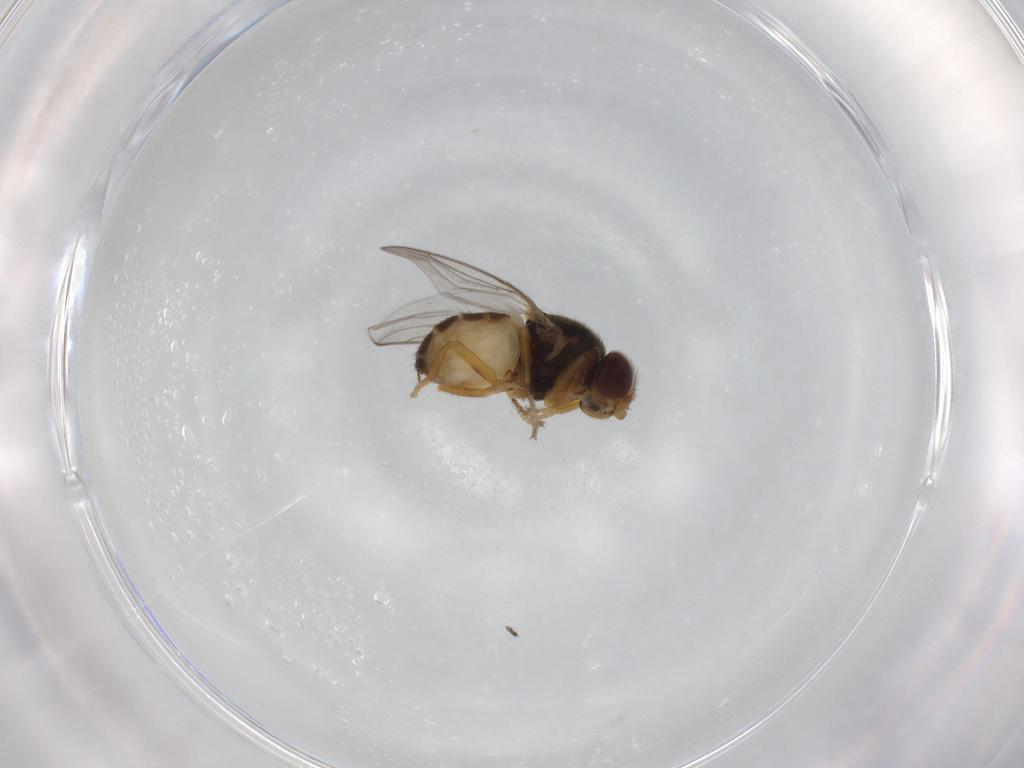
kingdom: Animalia
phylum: Arthropoda
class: Insecta
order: Diptera
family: Chloropidae
